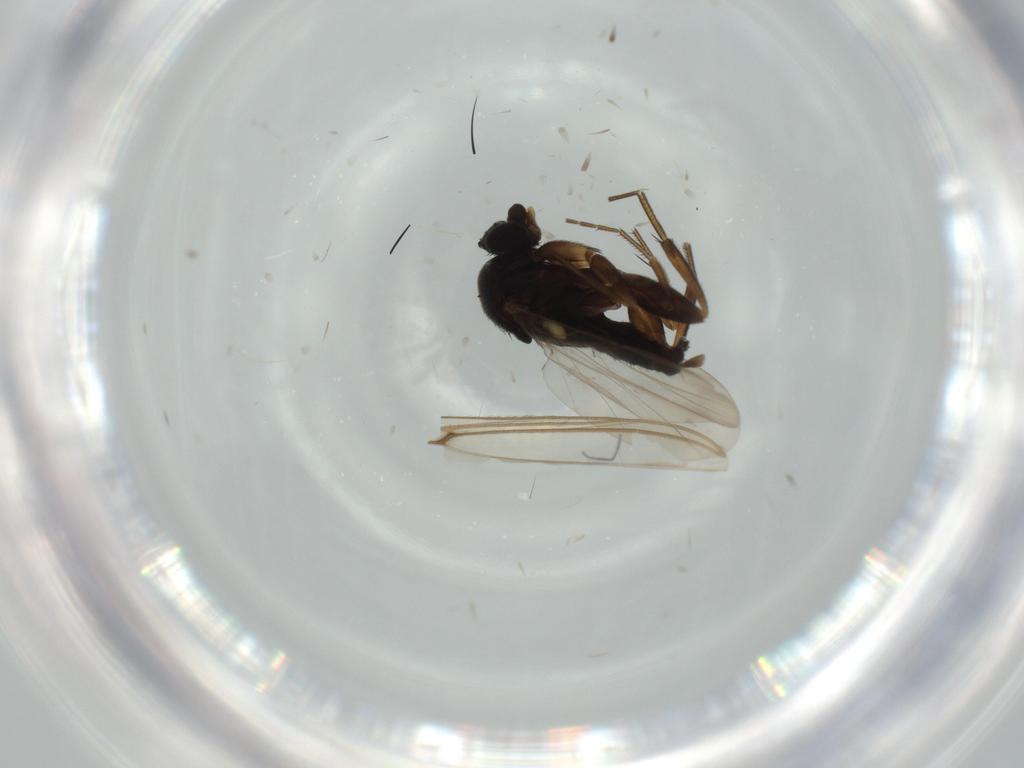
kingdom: Animalia
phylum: Arthropoda
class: Insecta
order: Diptera
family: Phoridae
